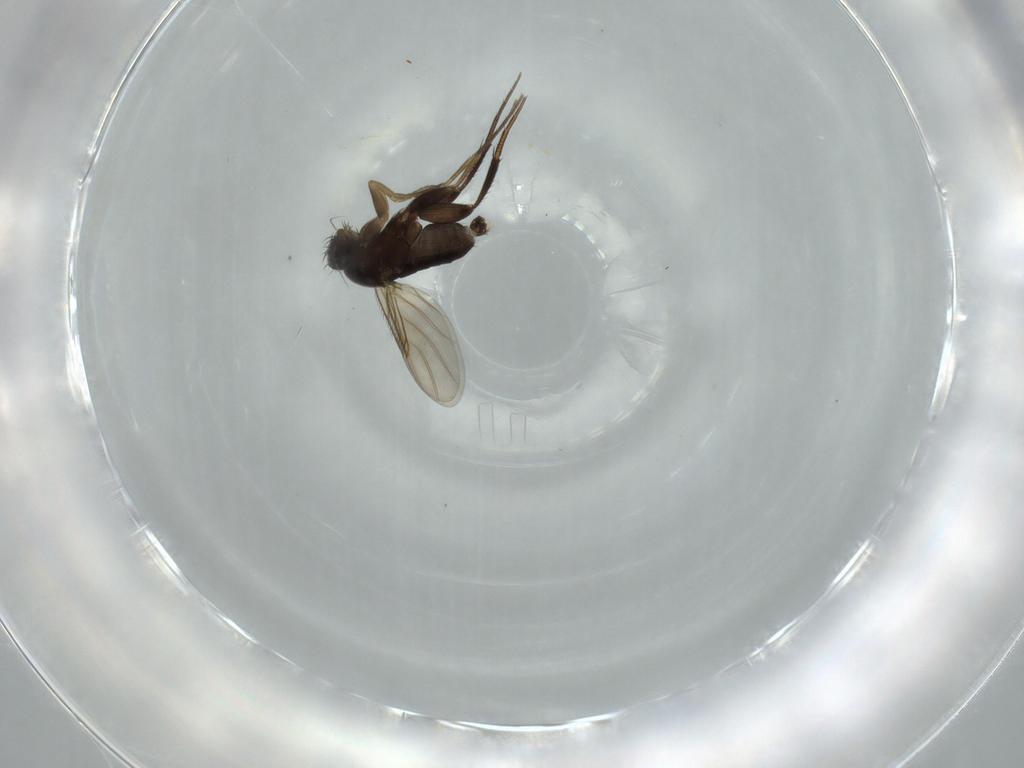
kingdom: Animalia
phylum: Arthropoda
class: Insecta
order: Diptera
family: Phoridae
